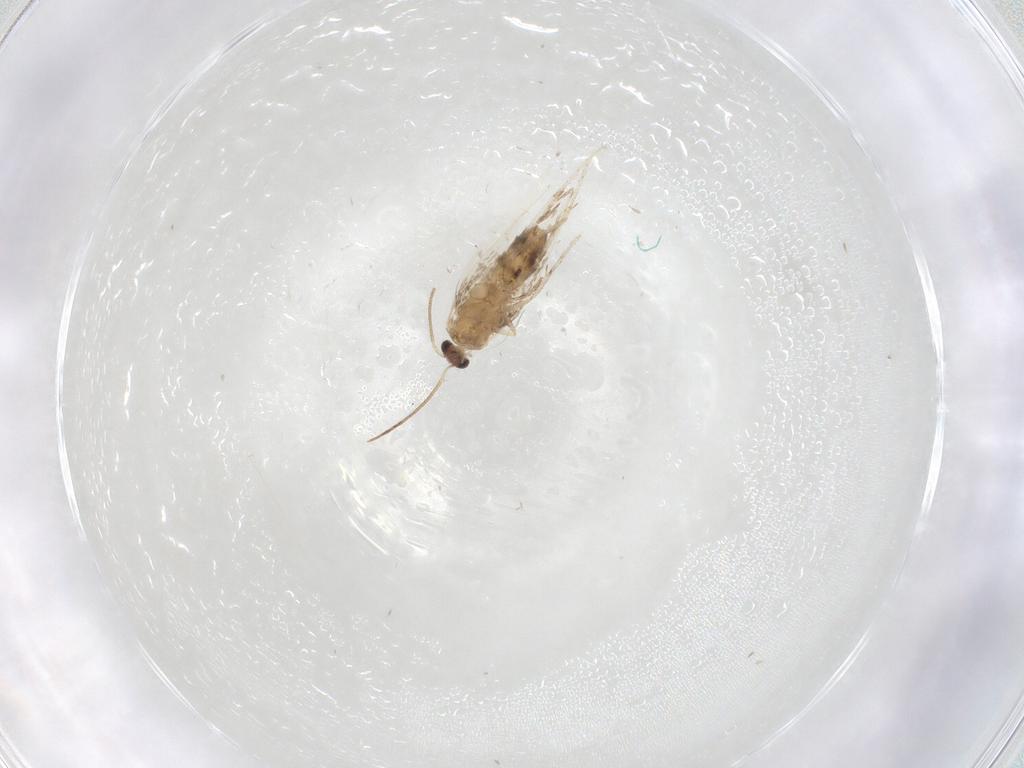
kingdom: Animalia
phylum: Arthropoda
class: Insecta
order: Lepidoptera
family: Nepticulidae
